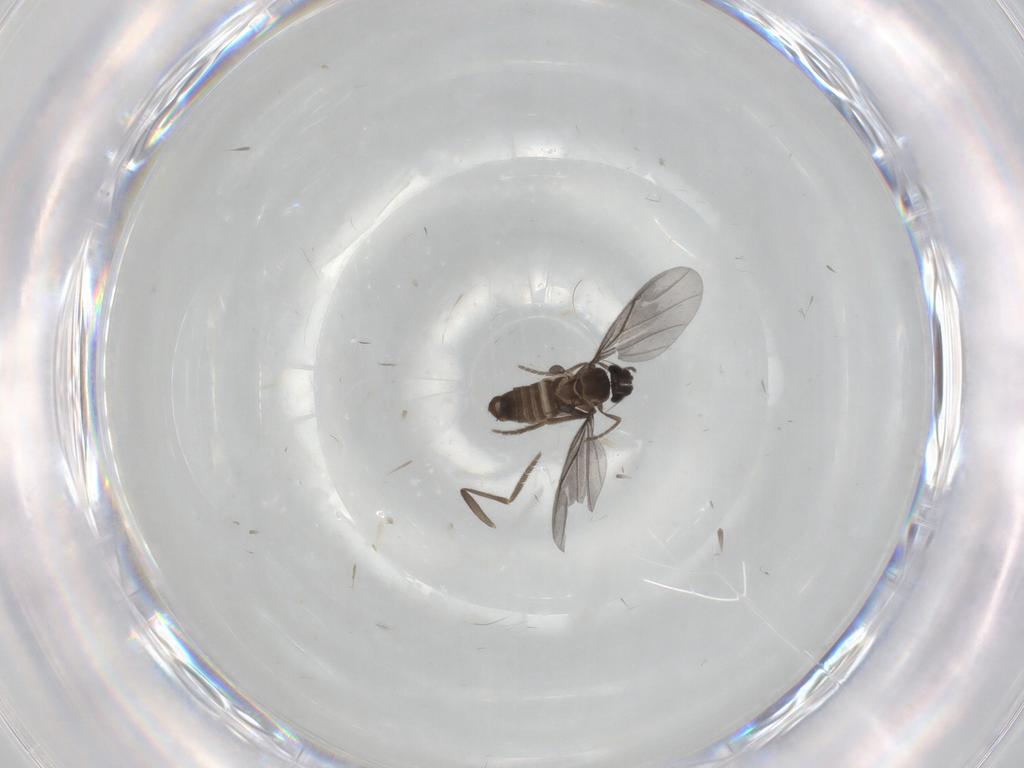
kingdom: Animalia
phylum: Arthropoda
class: Insecta
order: Diptera
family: Phoridae
